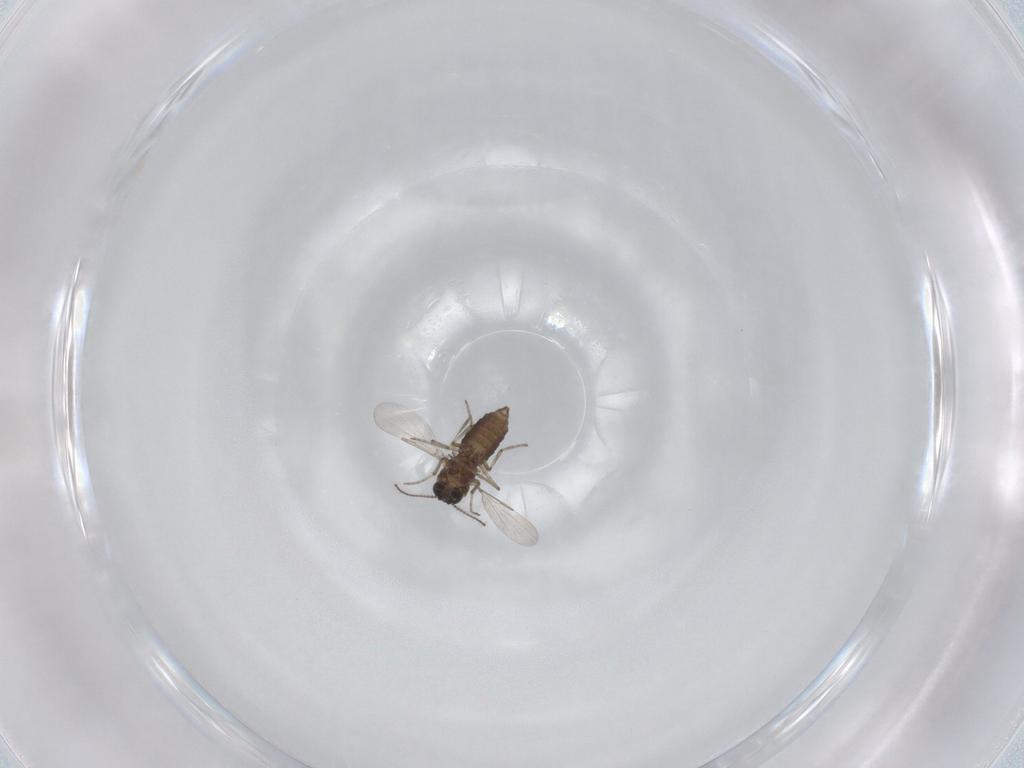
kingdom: Animalia
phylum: Arthropoda
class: Insecta
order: Diptera
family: Ceratopogonidae
